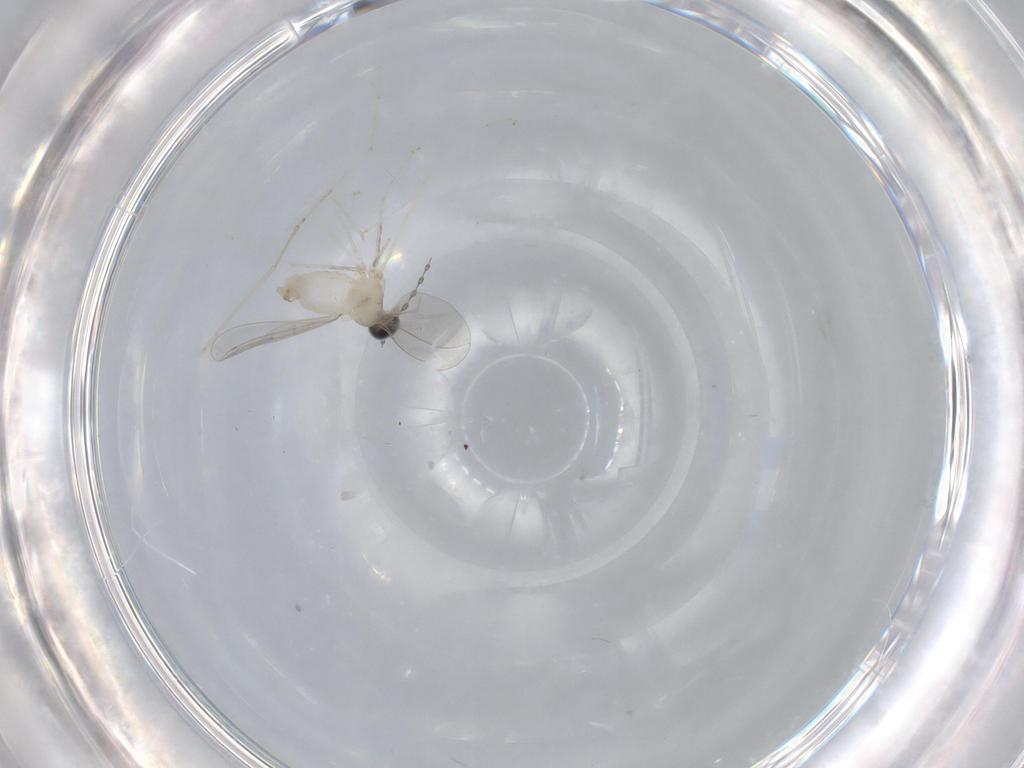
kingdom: Animalia
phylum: Arthropoda
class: Insecta
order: Diptera
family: Cecidomyiidae
